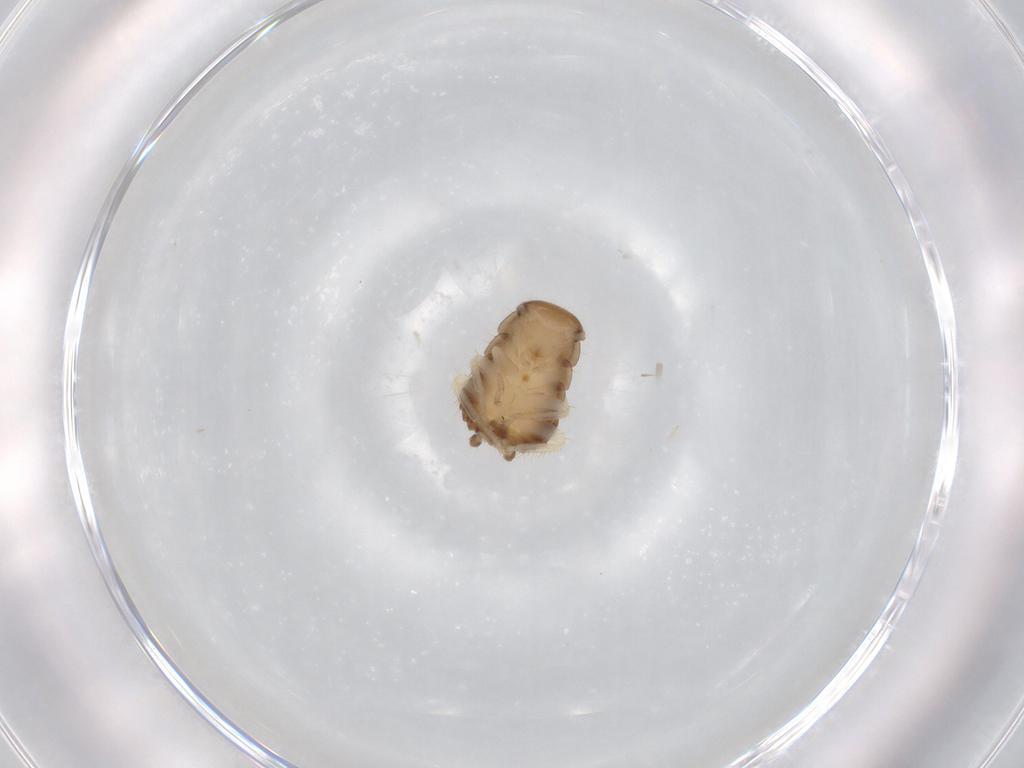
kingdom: Animalia
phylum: Arthropoda
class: Insecta
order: Blattodea
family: Ectobiidae
